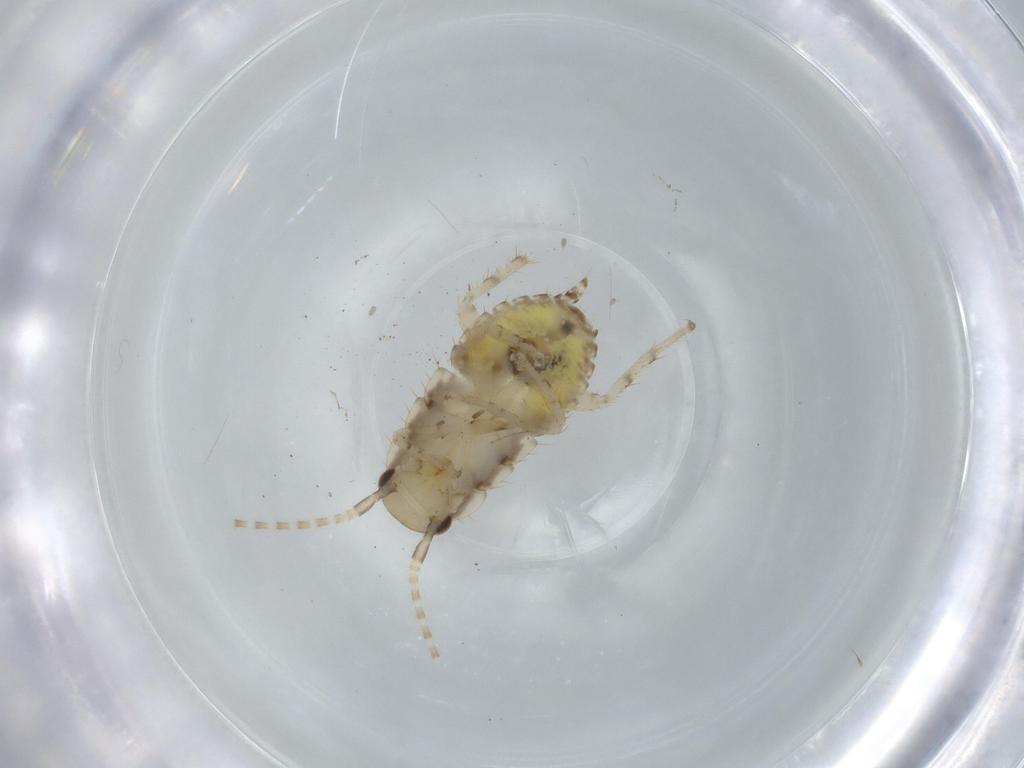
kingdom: Animalia
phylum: Arthropoda
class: Insecta
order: Blattodea
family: Ectobiidae
